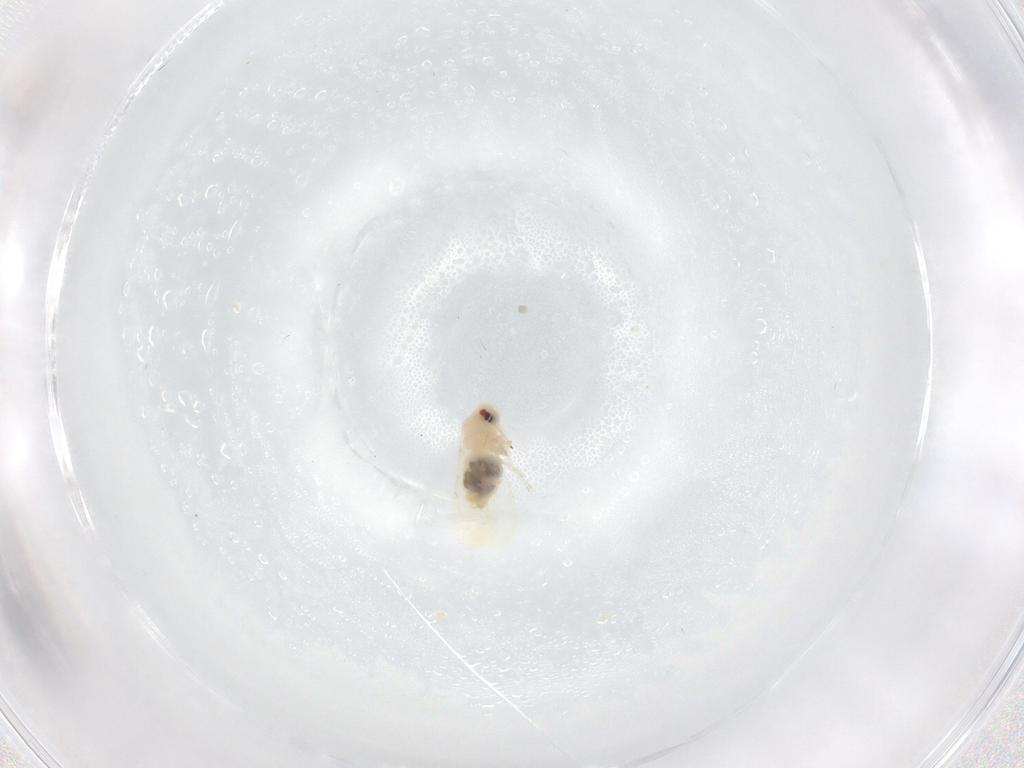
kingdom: Animalia
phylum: Arthropoda
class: Insecta
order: Hemiptera
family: Aleyrodidae
